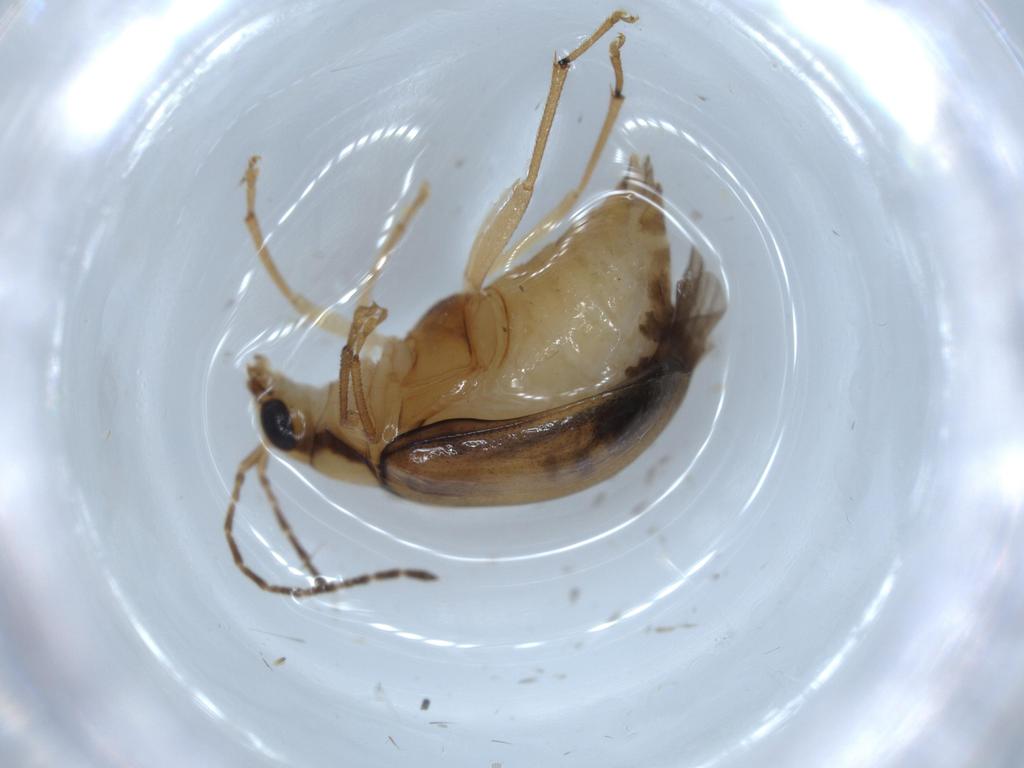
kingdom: Animalia
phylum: Arthropoda
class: Insecta
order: Coleoptera
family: Chrysomelidae
